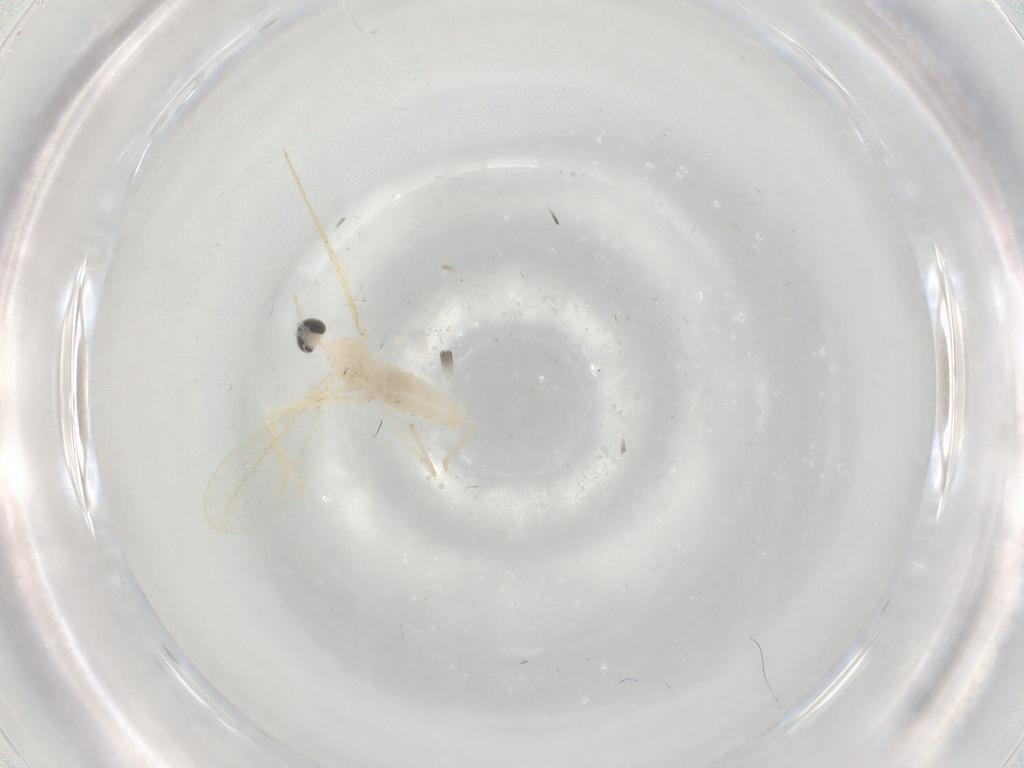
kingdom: Animalia
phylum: Arthropoda
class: Insecta
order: Diptera
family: Cecidomyiidae
